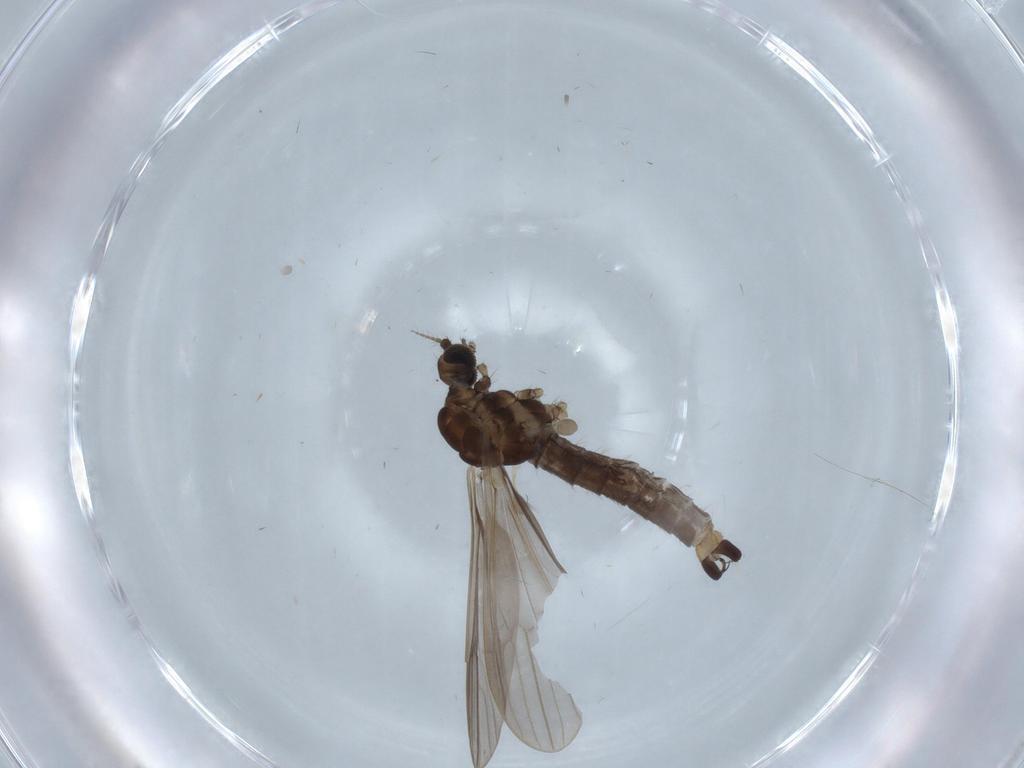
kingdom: Animalia
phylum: Arthropoda
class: Insecta
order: Diptera
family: Limoniidae
